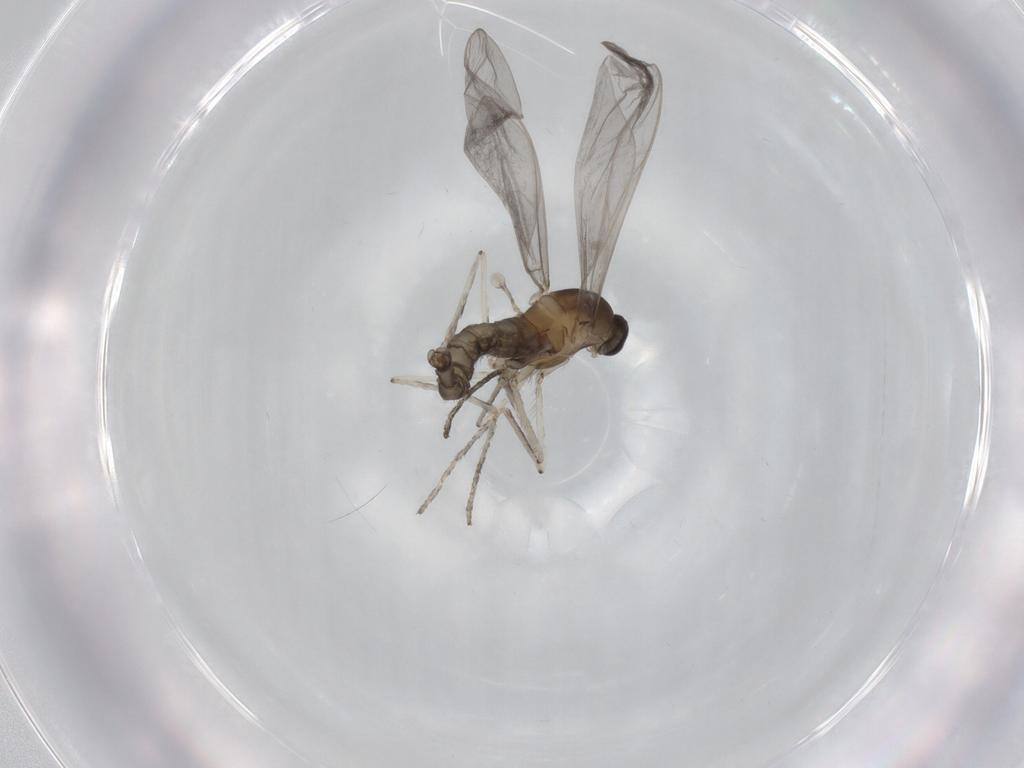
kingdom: Animalia
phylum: Arthropoda
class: Insecta
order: Diptera
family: Cecidomyiidae
